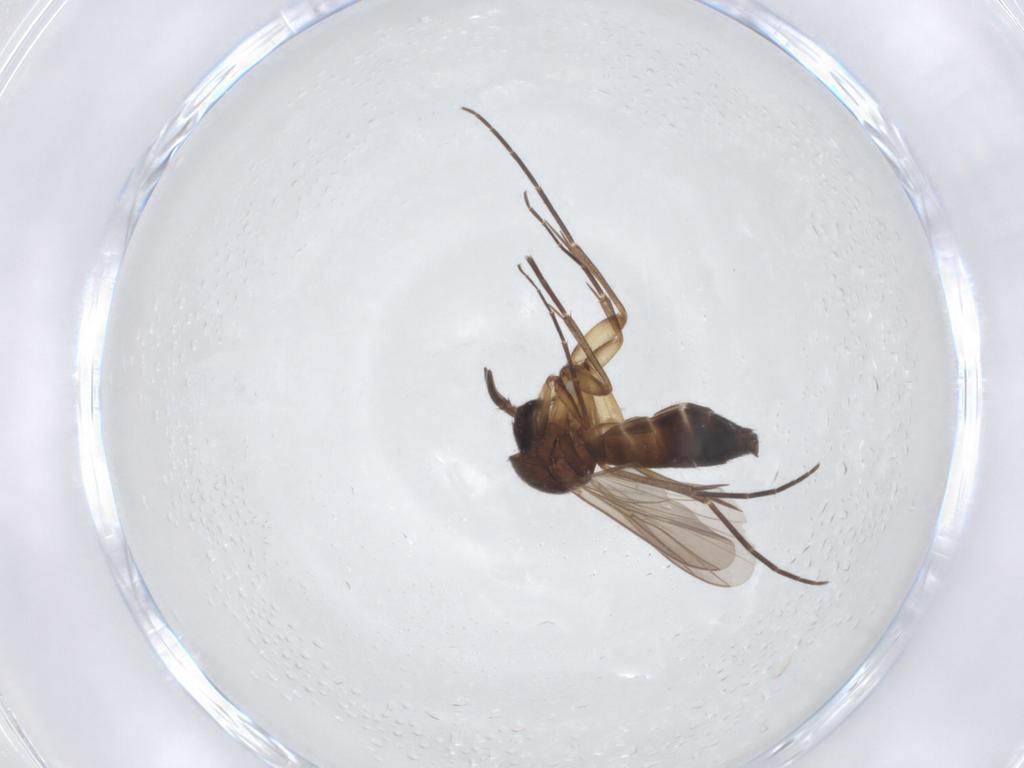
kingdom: Animalia
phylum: Arthropoda
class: Insecta
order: Diptera
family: Mycetophilidae
